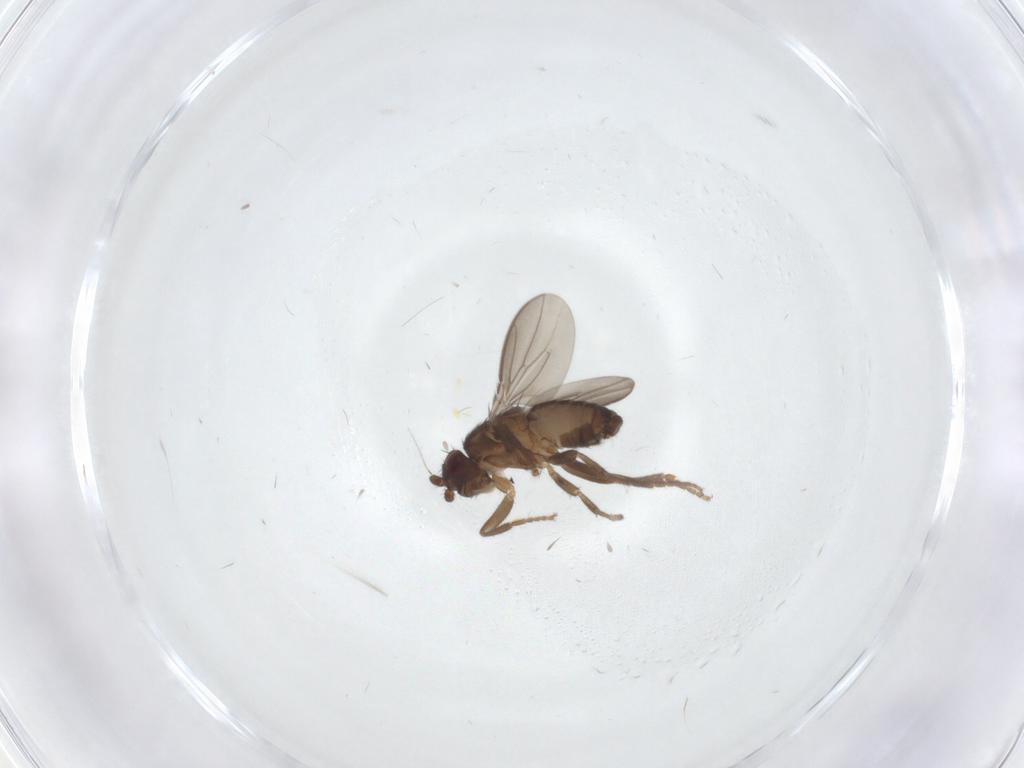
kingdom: Animalia
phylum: Arthropoda
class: Insecta
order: Diptera
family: Sphaeroceridae
